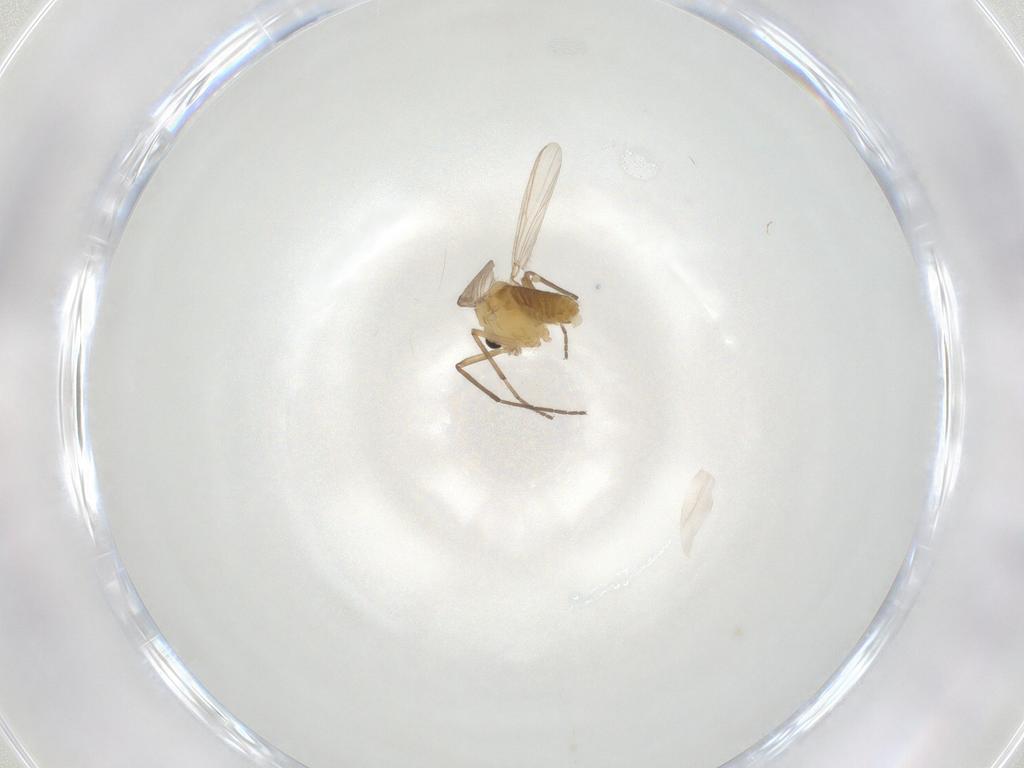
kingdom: Animalia
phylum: Arthropoda
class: Insecta
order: Diptera
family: Chironomidae
